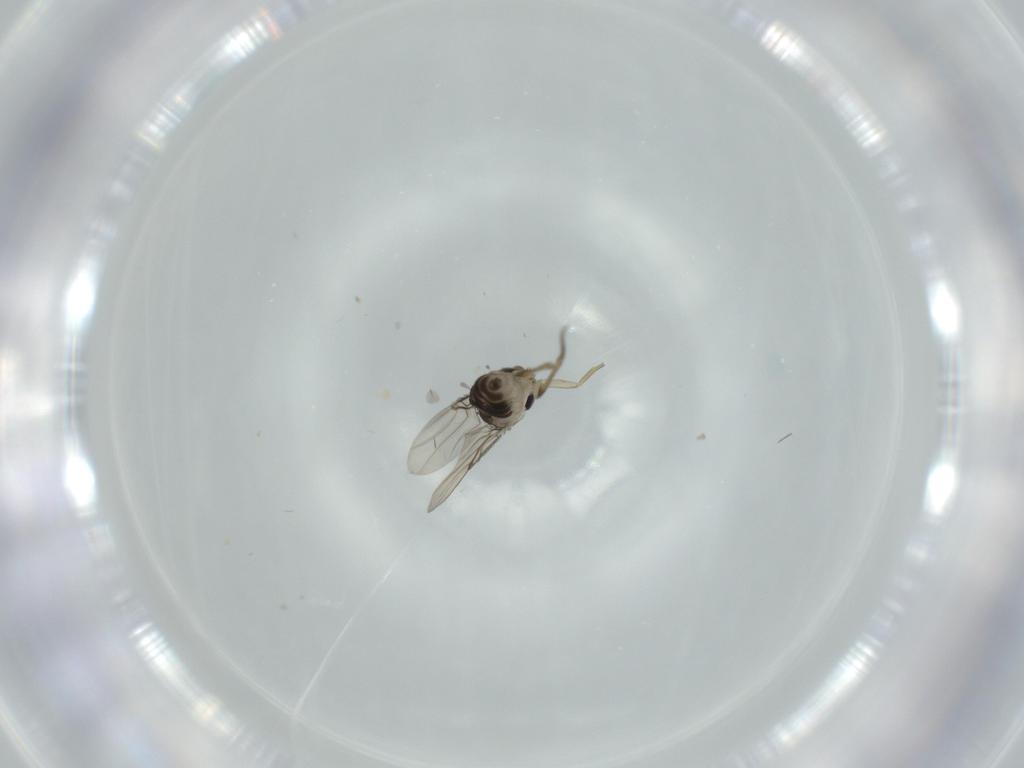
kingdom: Animalia
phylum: Arthropoda
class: Insecta
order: Diptera
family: Phoridae
